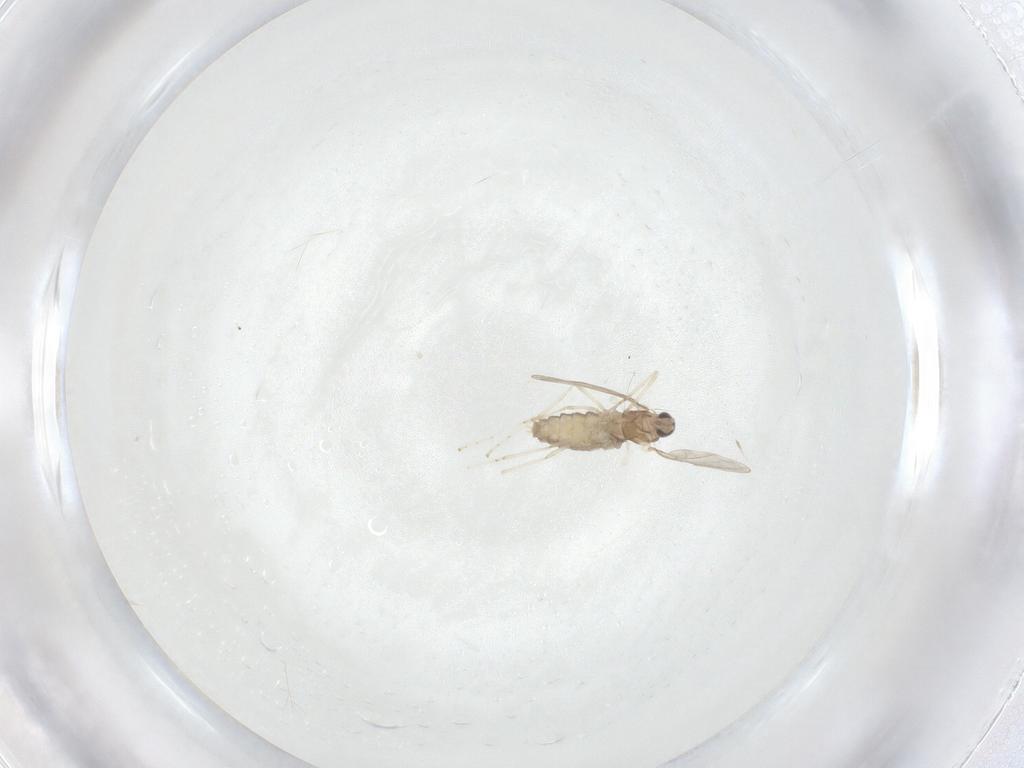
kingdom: Animalia
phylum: Arthropoda
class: Insecta
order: Diptera
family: Cecidomyiidae
